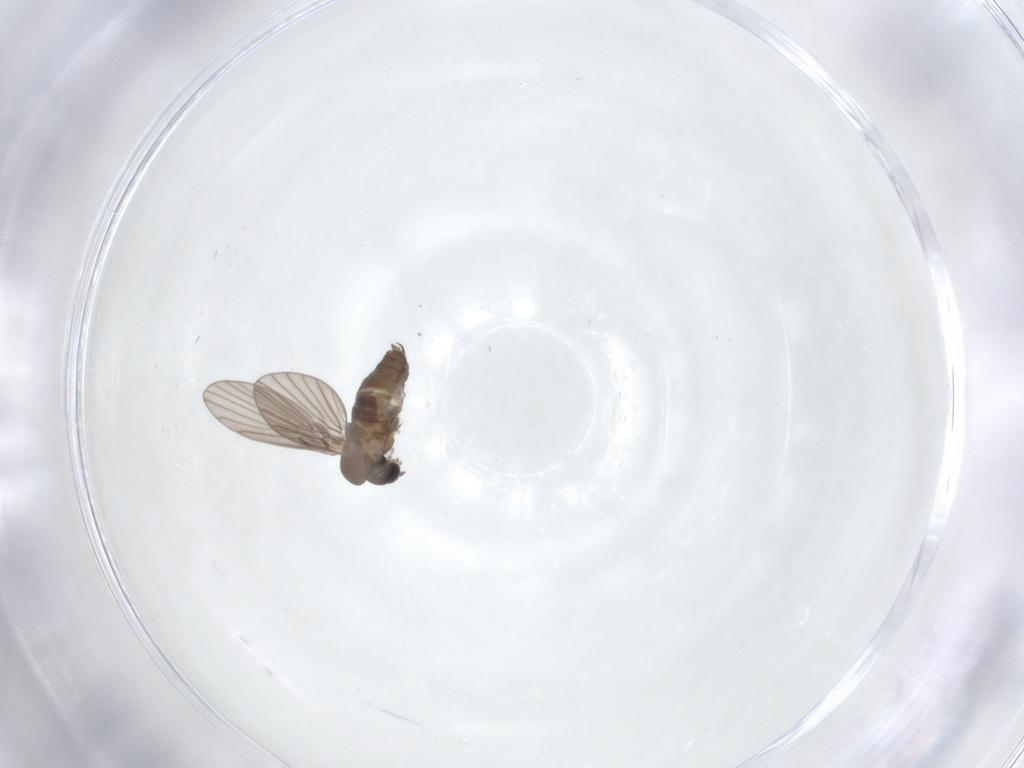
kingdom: Animalia
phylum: Arthropoda
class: Insecta
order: Diptera
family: Psychodidae
